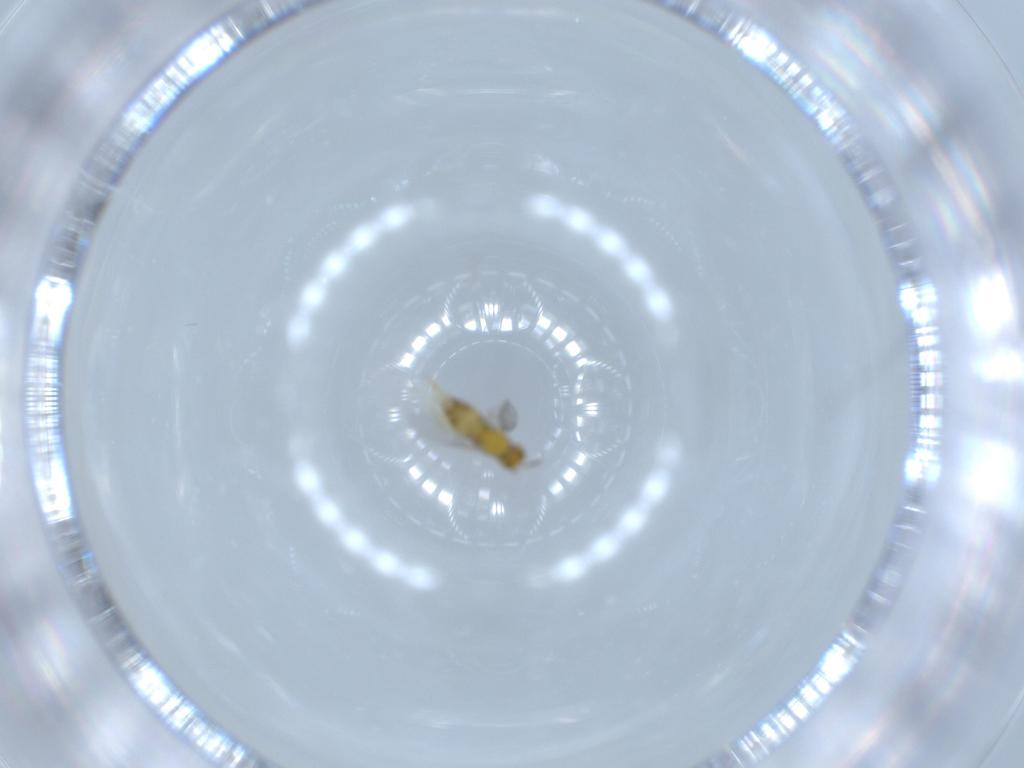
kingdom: Animalia
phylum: Arthropoda
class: Insecta
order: Hymenoptera
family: Aphelinidae
